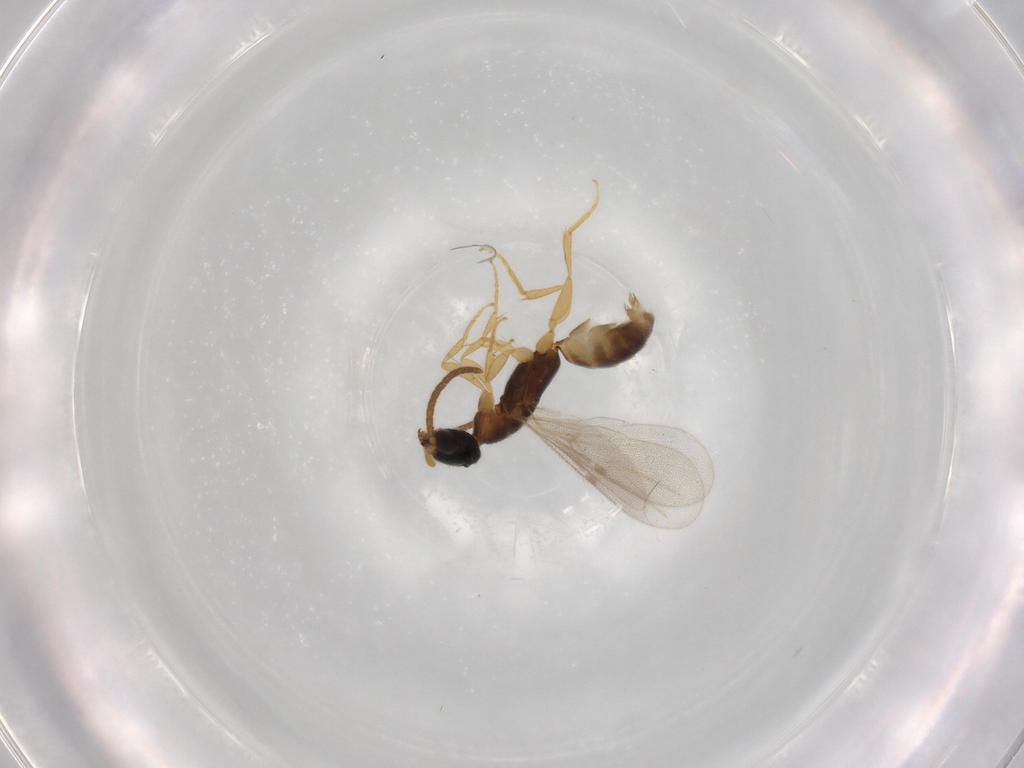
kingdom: Animalia
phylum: Arthropoda
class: Insecta
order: Hymenoptera
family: Bethylidae
